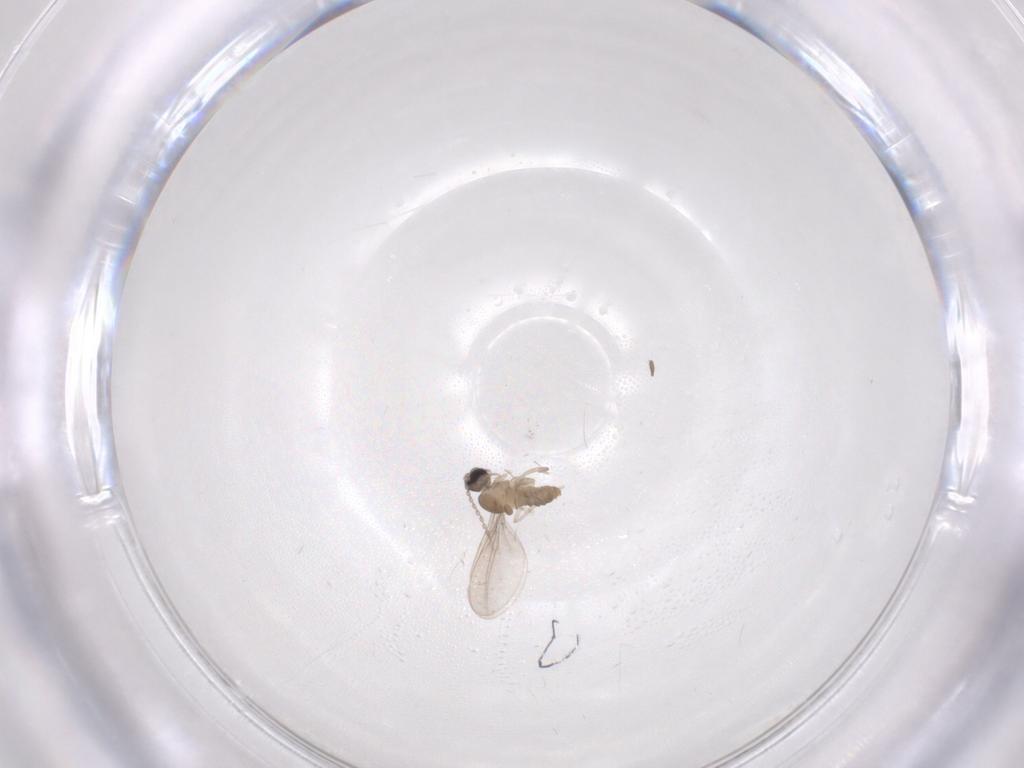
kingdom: Animalia
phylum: Arthropoda
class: Insecta
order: Diptera
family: Cecidomyiidae
